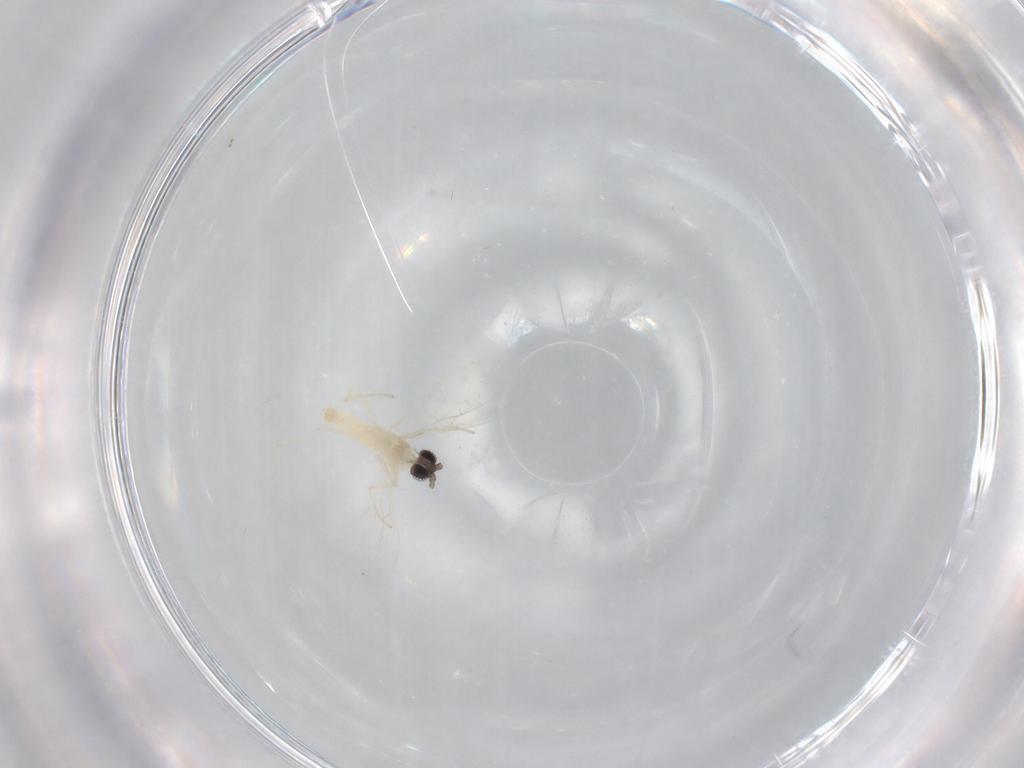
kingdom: Animalia
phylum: Arthropoda
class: Insecta
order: Diptera
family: Cecidomyiidae
